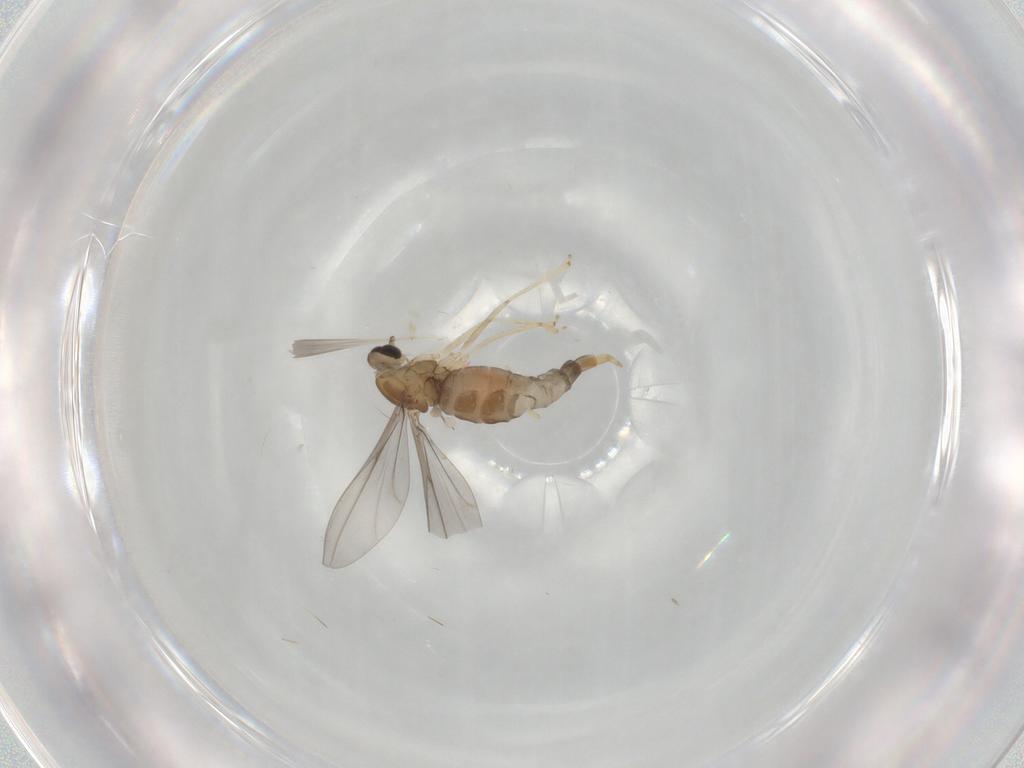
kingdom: Animalia
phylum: Arthropoda
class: Insecta
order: Diptera
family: Cecidomyiidae
